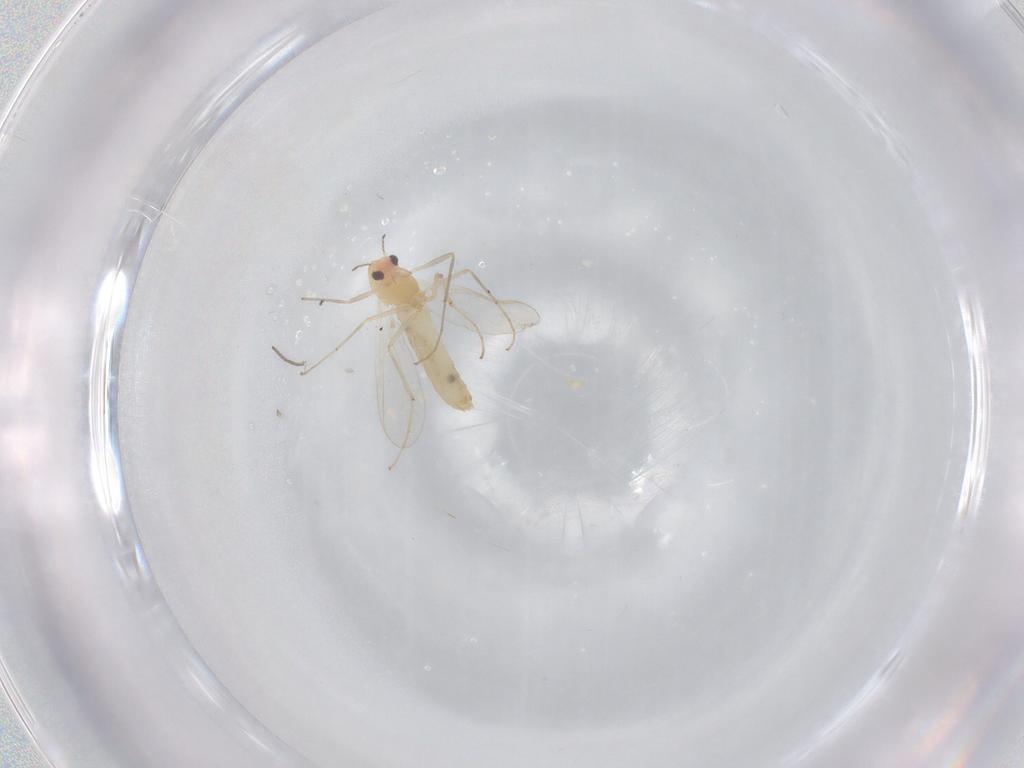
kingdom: Animalia
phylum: Arthropoda
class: Insecta
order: Diptera
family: Chironomidae
